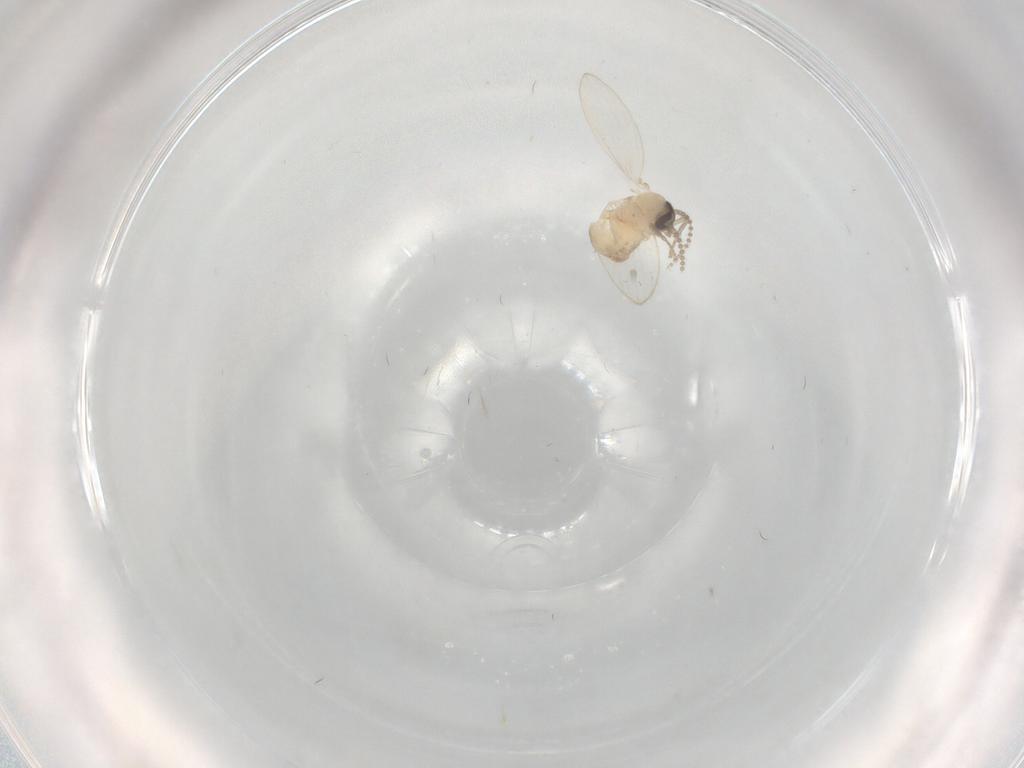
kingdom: Animalia
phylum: Arthropoda
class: Insecta
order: Diptera
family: Psychodidae
